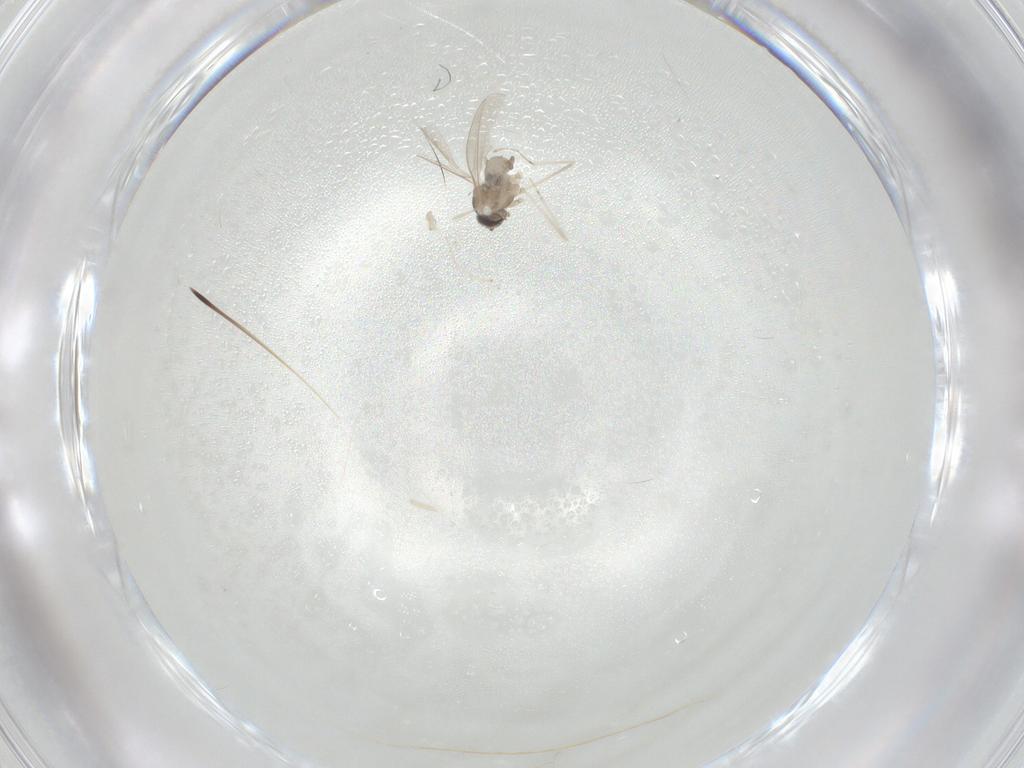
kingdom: Animalia
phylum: Arthropoda
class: Insecta
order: Diptera
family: Cecidomyiidae
